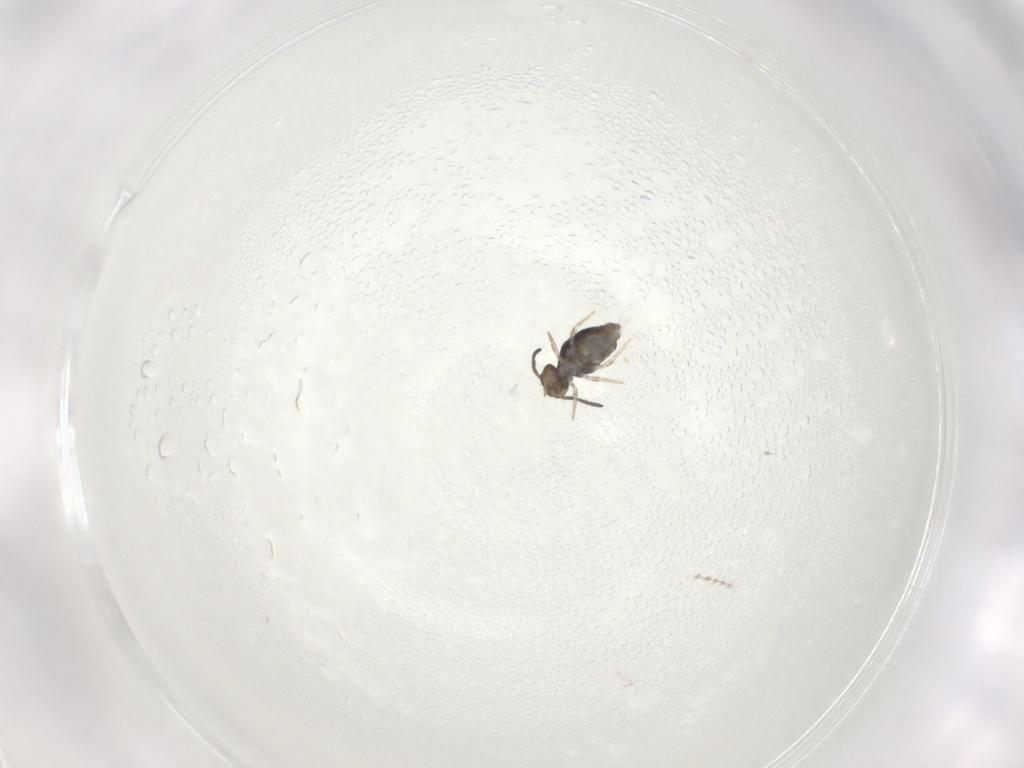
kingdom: Animalia
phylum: Arthropoda
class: Collembola
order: Symphypleona
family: Katiannidae
